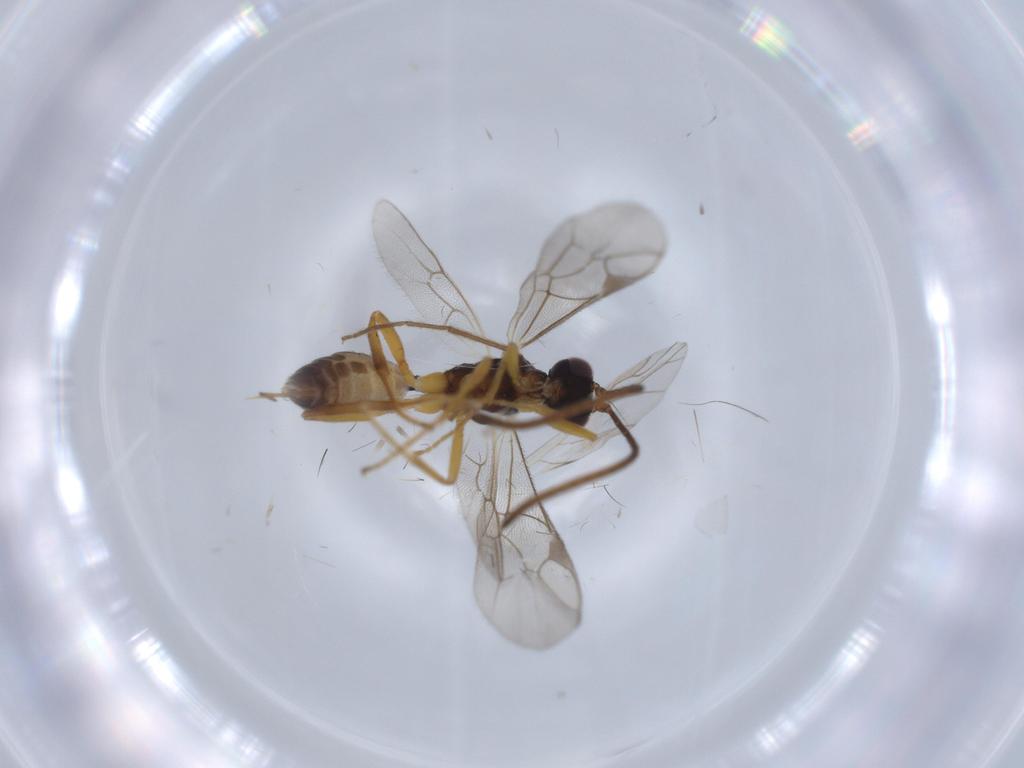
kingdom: Animalia
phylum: Arthropoda
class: Insecta
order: Hymenoptera
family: Ichneumonidae
